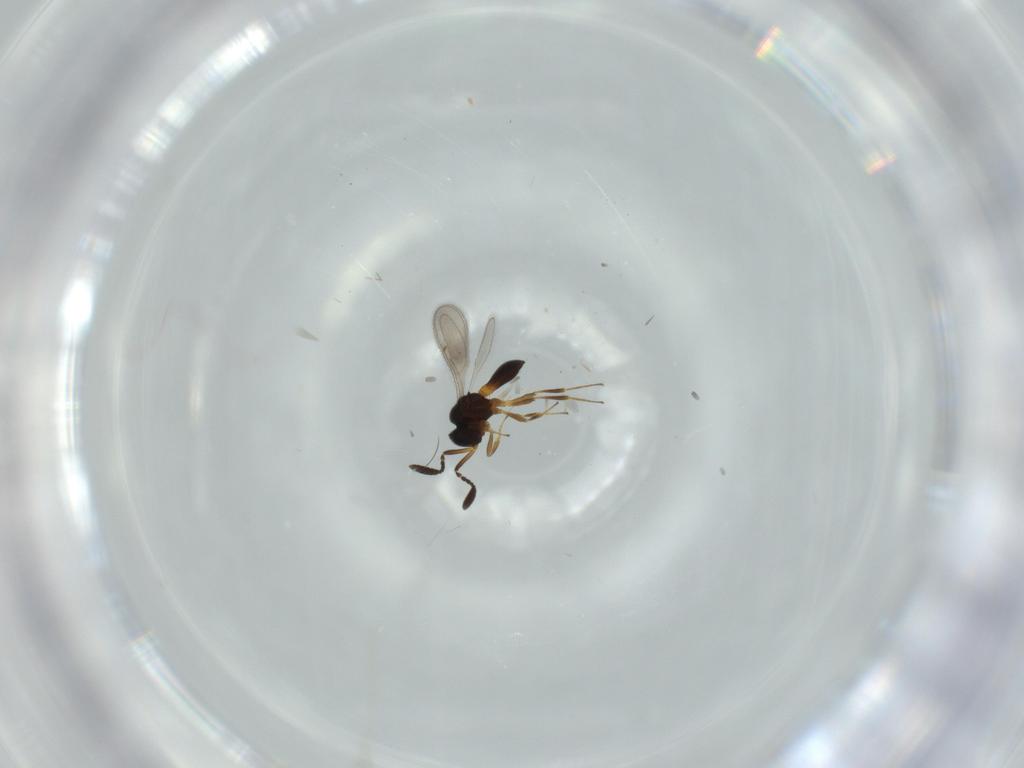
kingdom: Animalia
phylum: Arthropoda
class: Insecta
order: Hymenoptera
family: Scelionidae
